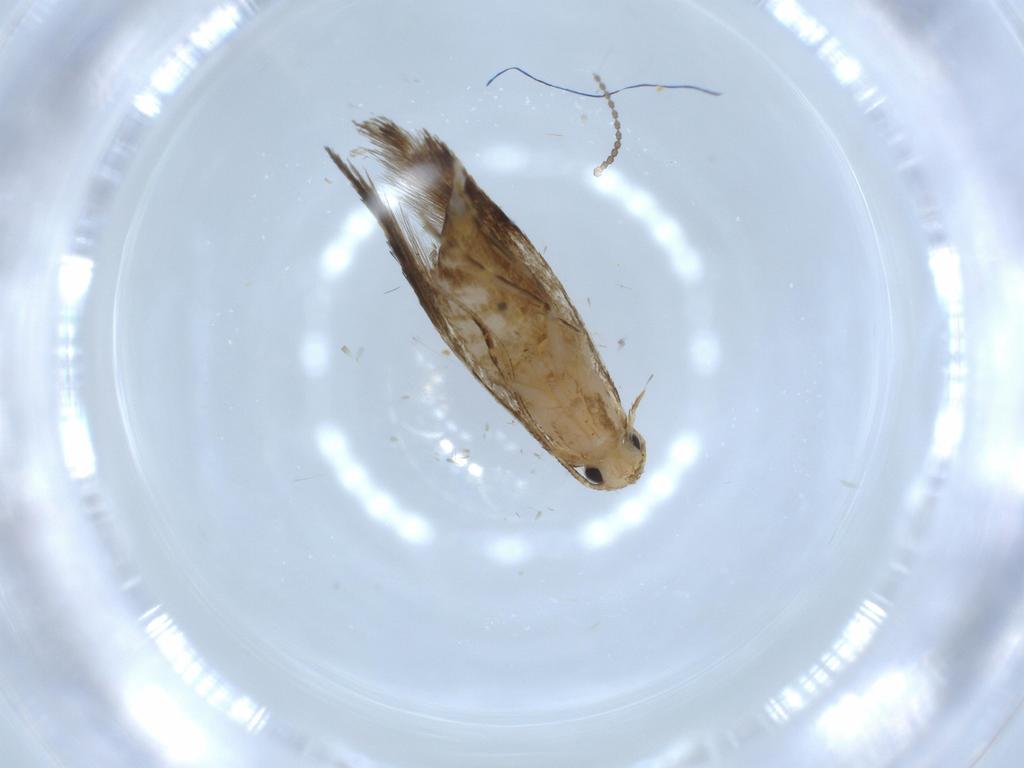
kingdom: Animalia
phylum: Arthropoda
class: Insecta
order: Lepidoptera
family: Tineidae
